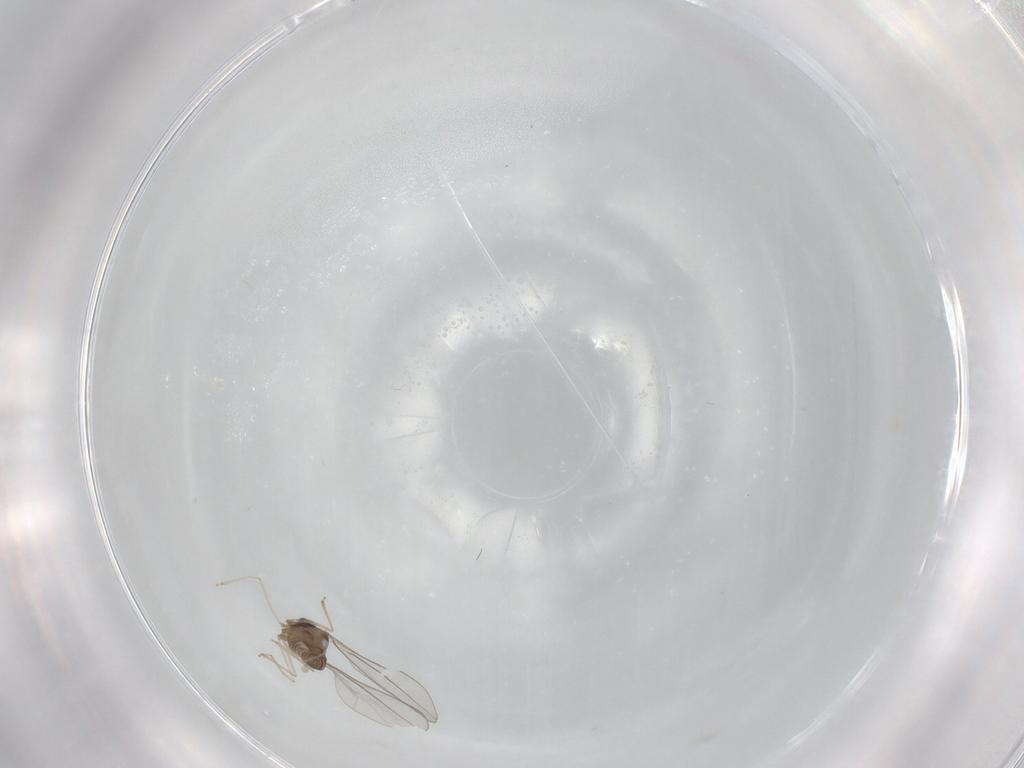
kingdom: Animalia
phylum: Arthropoda
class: Insecta
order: Diptera
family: Cecidomyiidae
